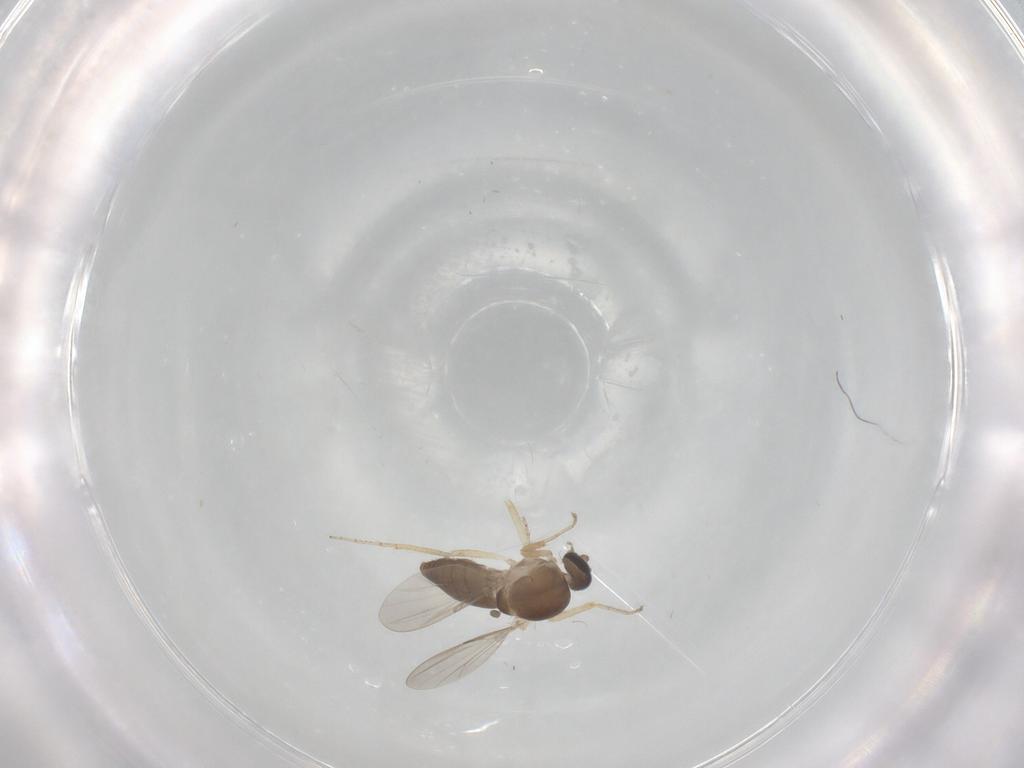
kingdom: Animalia
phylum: Arthropoda
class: Insecta
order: Diptera
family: Ceratopogonidae
